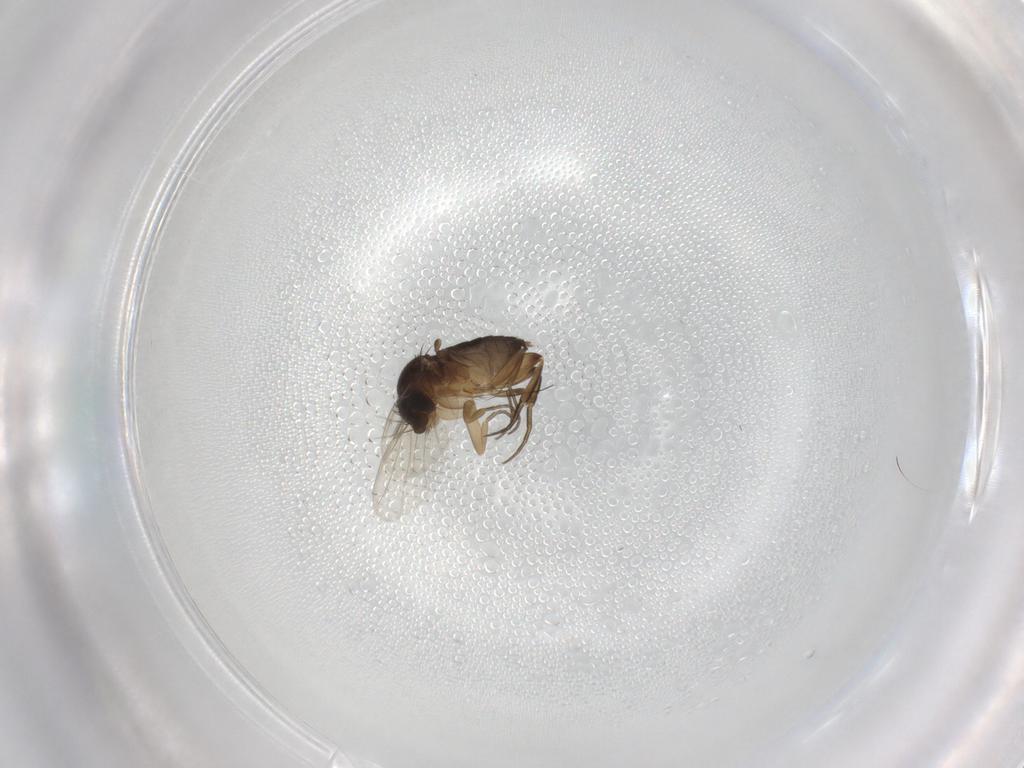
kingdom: Animalia
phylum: Arthropoda
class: Insecta
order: Diptera
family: Phoridae
